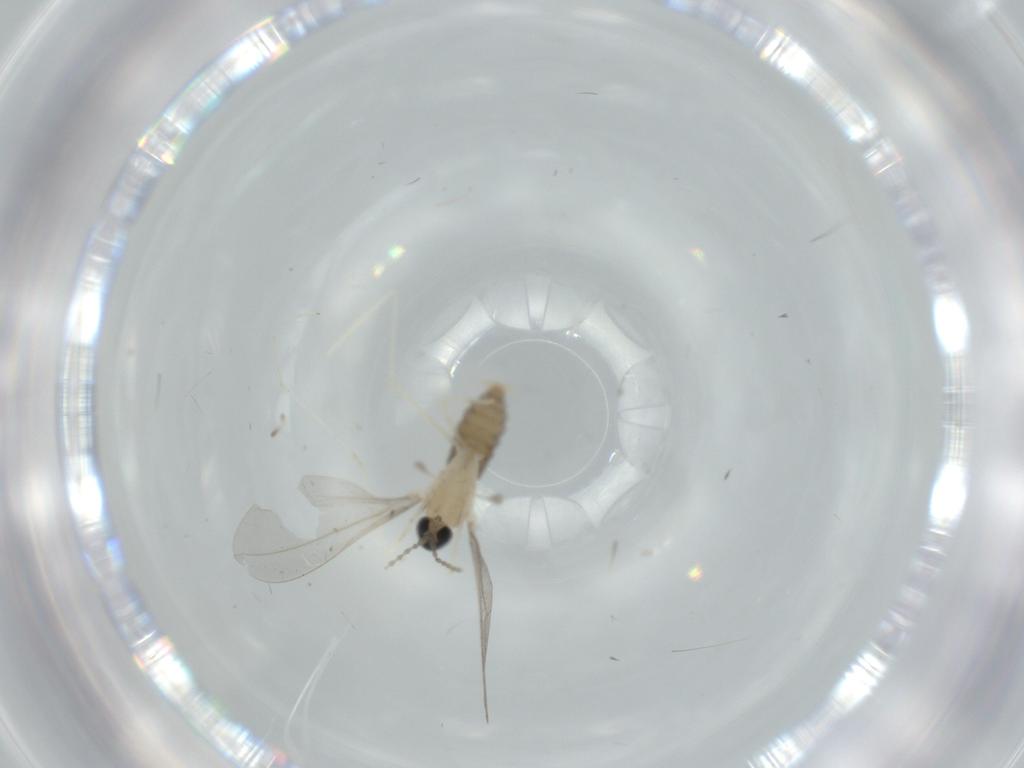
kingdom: Animalia
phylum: Arthropoda
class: Insecta
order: Diptera
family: Cecidomyiidae
